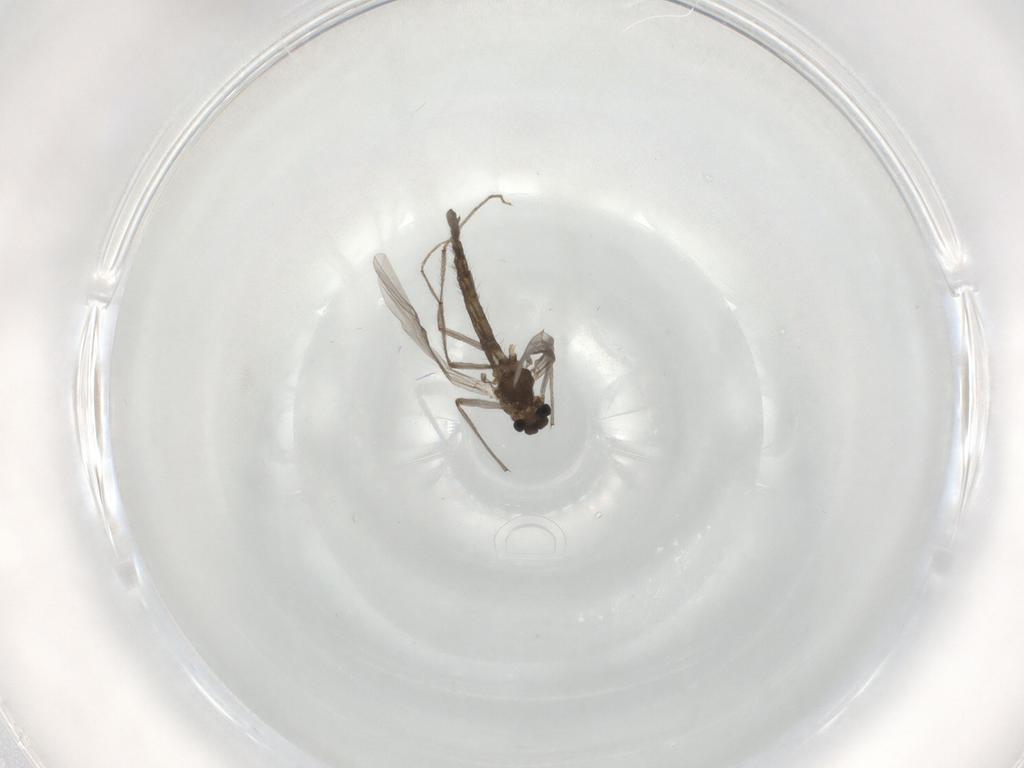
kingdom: Animalia
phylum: Arthropoda
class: Insecta
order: Diptera
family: Chironomidae
